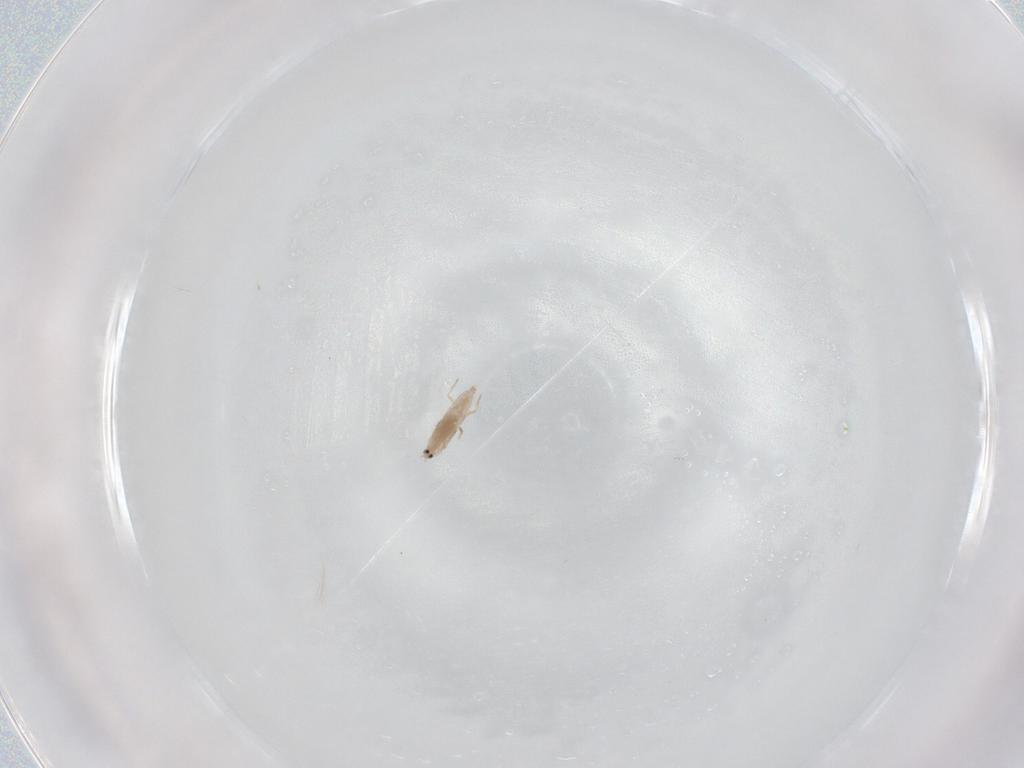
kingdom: Animalia
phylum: Arthropoda
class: Insecta
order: Hemiptera
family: Coccoidea_incertae_sedis
